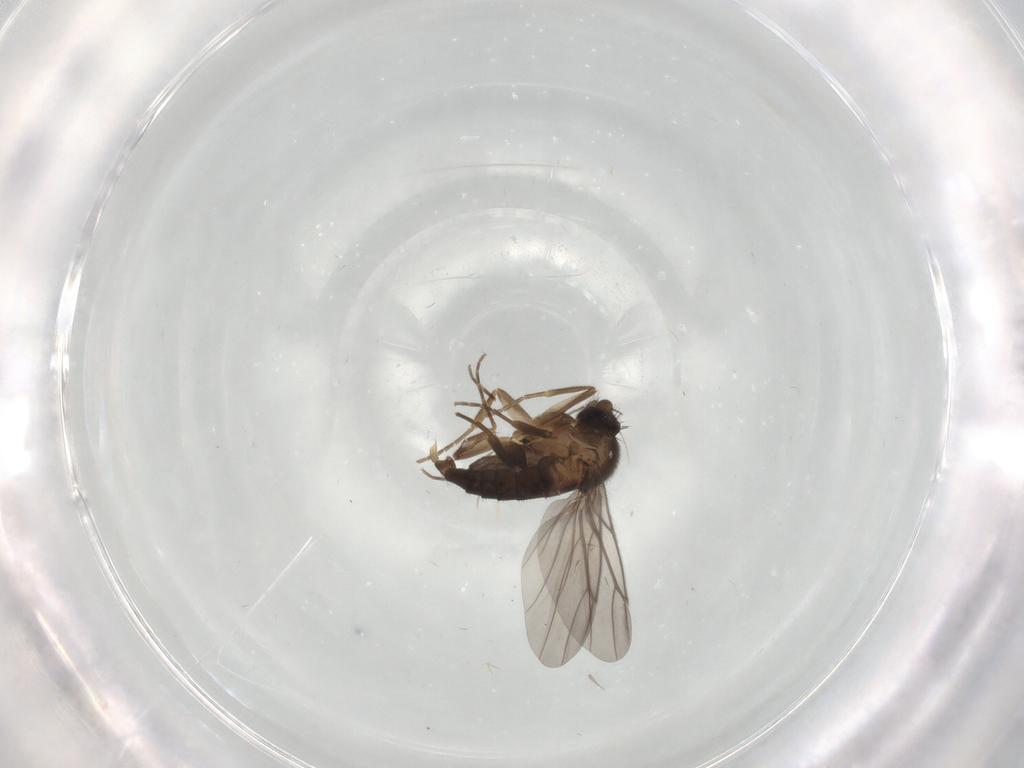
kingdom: Animalia
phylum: Arthropoda
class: Insecta
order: Diptera
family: Phoridae
